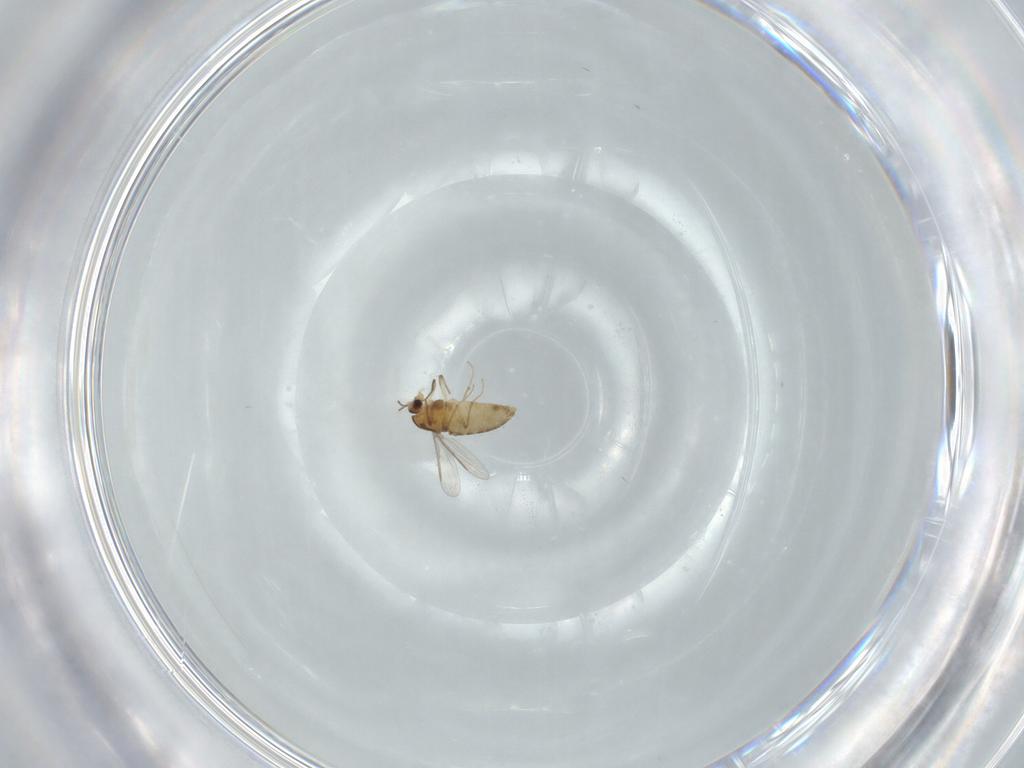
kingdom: Animalia
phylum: Arthropoda
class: Insecta
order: Diptera
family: Chironomidae
